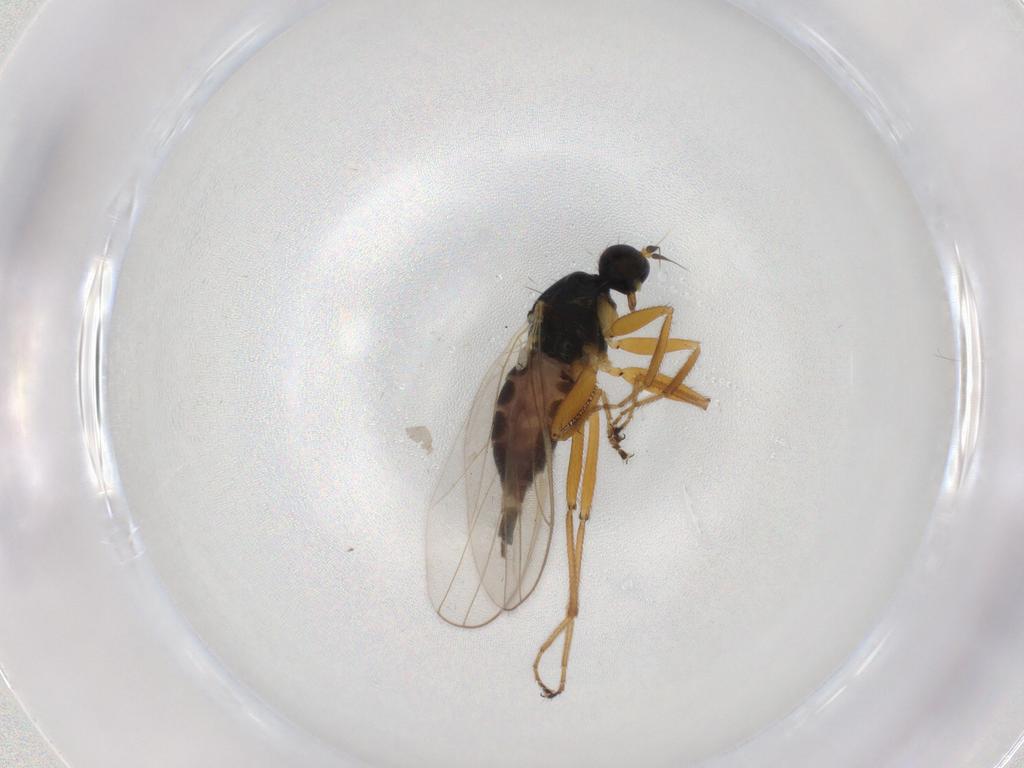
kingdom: Animalia
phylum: Arthropoda
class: Insecta
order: Diptera
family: Hybotidae
